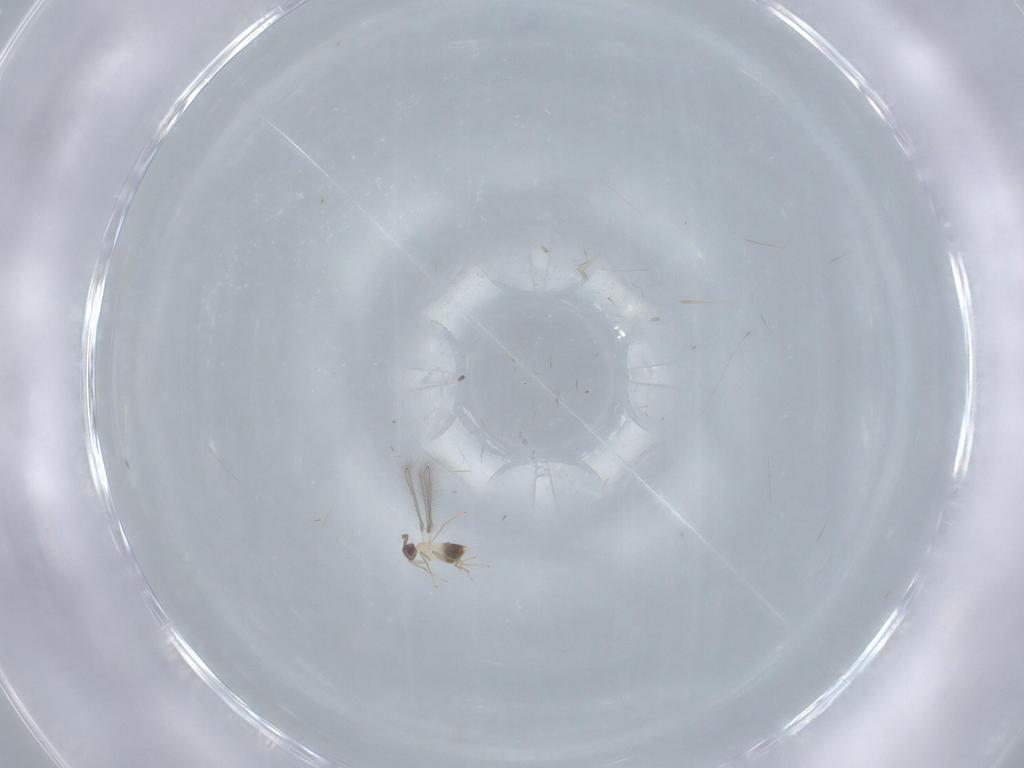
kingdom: Animalia
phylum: Arthropoda
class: Insecta
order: Hymenoptera
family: Mymaridae
